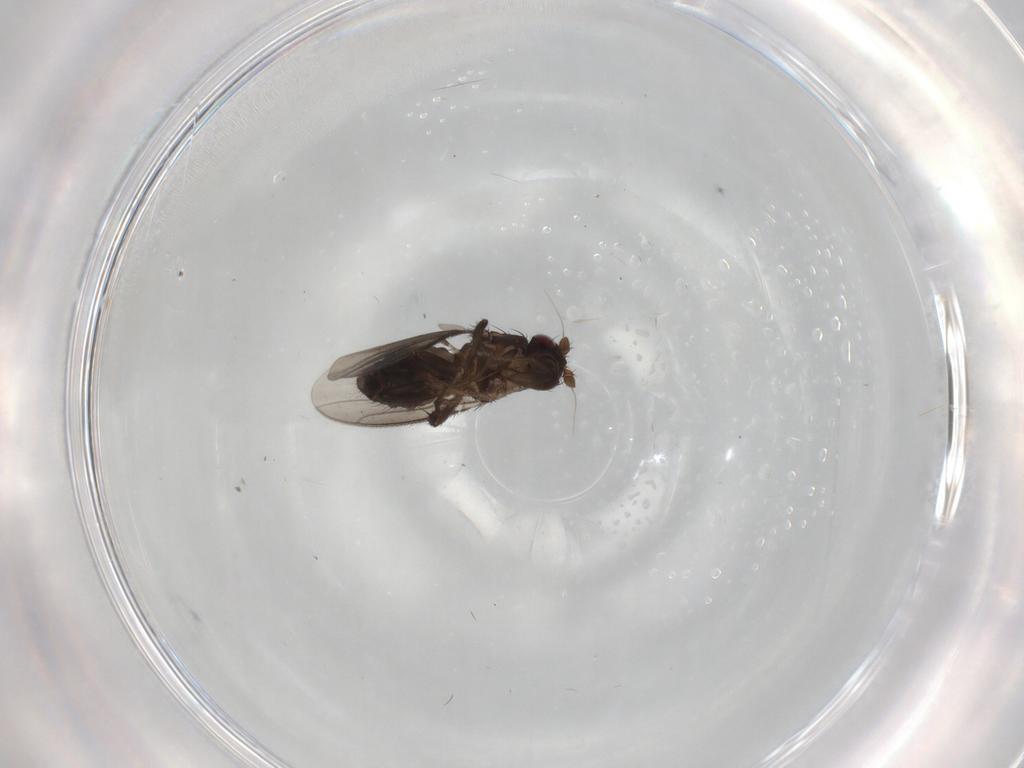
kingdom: Animalia
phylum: Arthropoda
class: Insecta
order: Diptera
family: Sphaeroceridae
